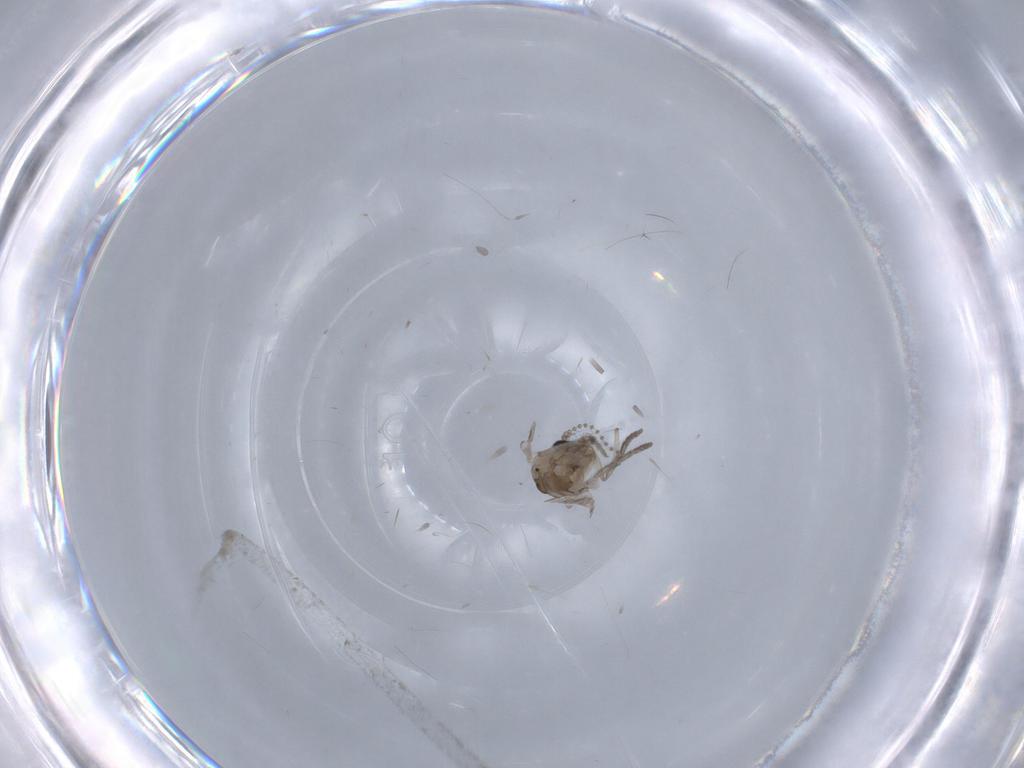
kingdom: Animalia
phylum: Arthropoda
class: Insecta
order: Diptera
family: Psychodidae
